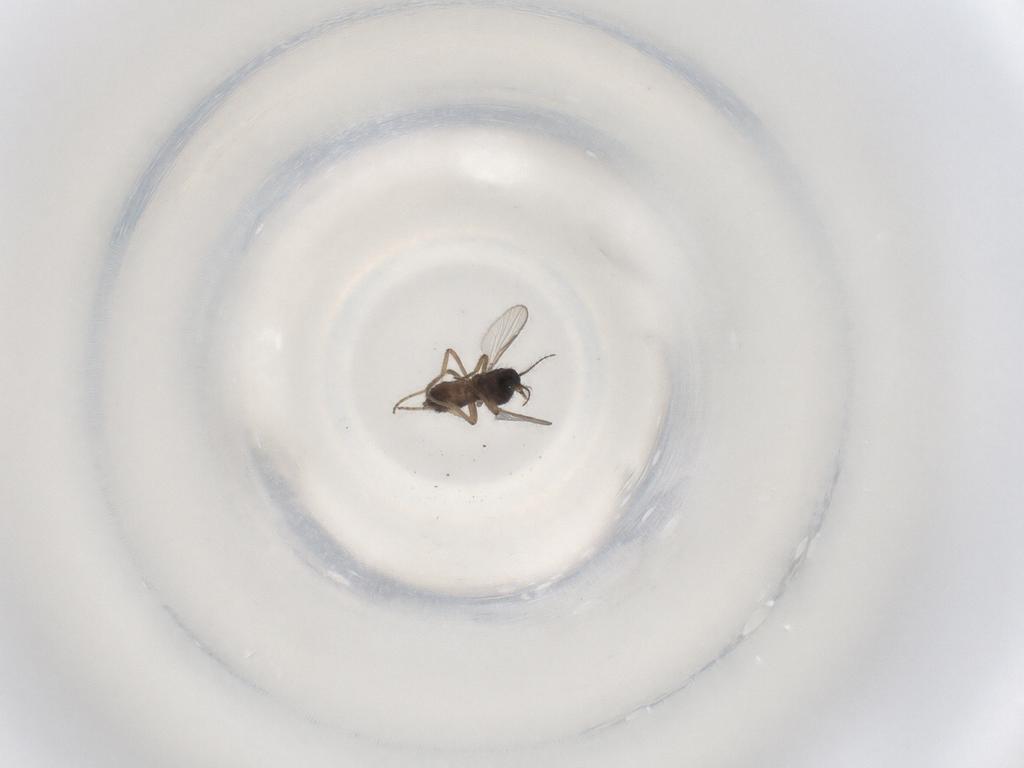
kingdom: Animalia
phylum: Arthropoda
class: Insecta
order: Diptera
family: Ceratopogonidae
